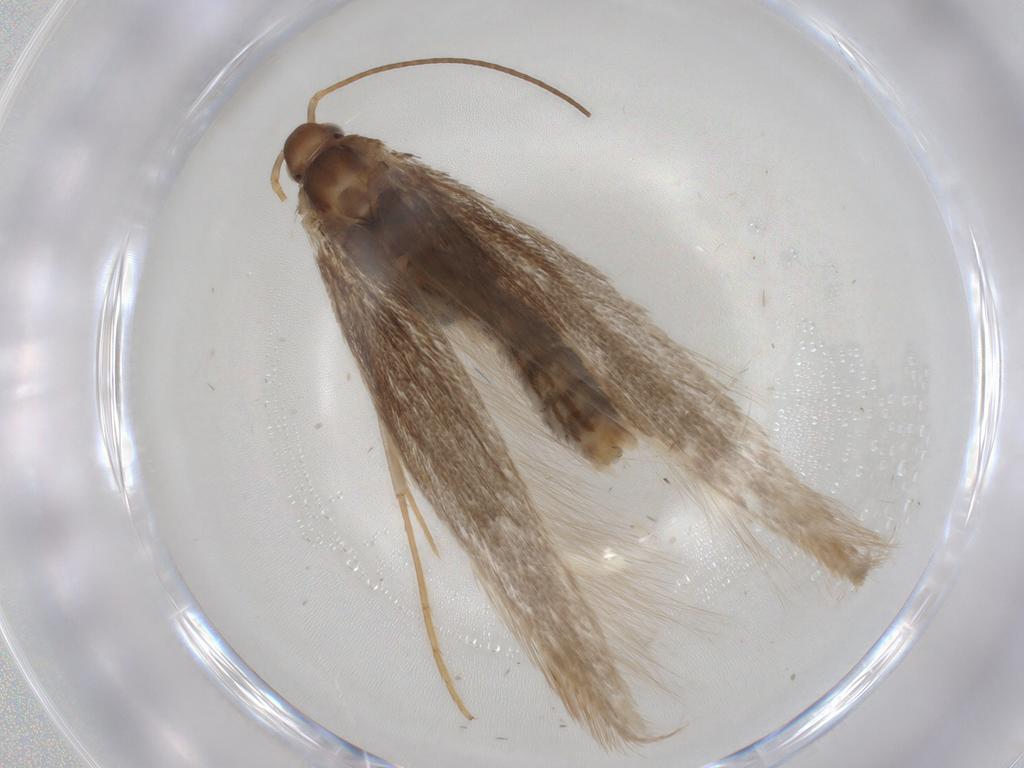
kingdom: Animalia
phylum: Arthropoda
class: Insecta
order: Lepidoptera
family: Coleophoridae
